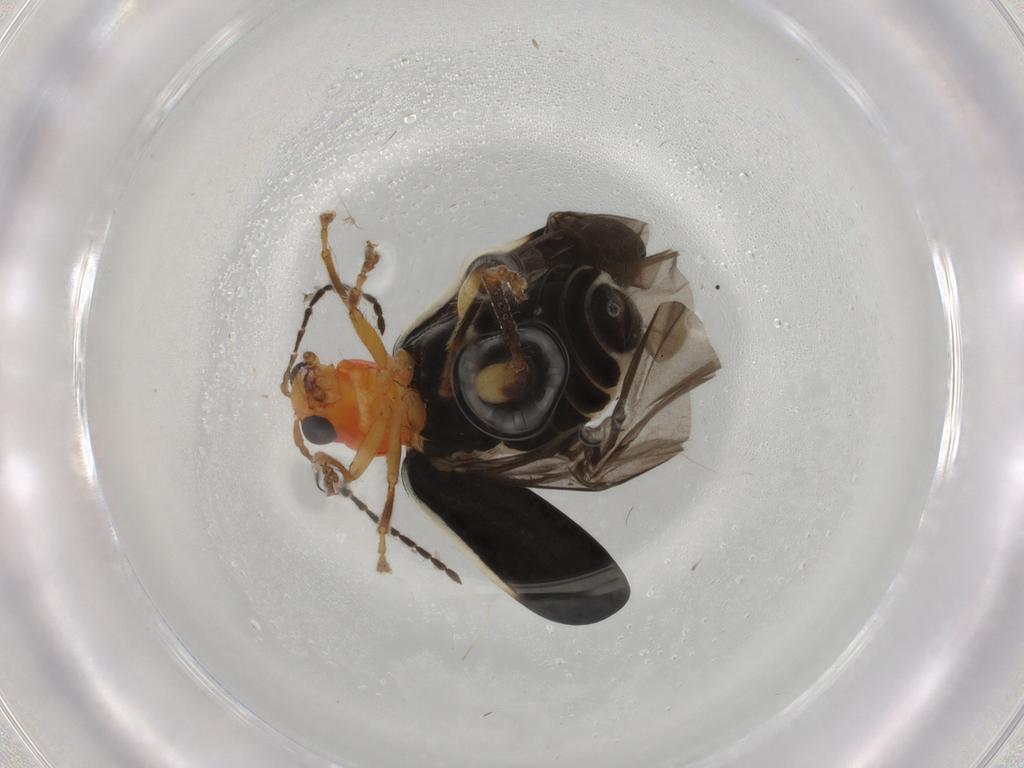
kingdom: Animalia
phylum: Arthropoda
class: Insecta
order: Coleoptera
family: Chrysomelidae
